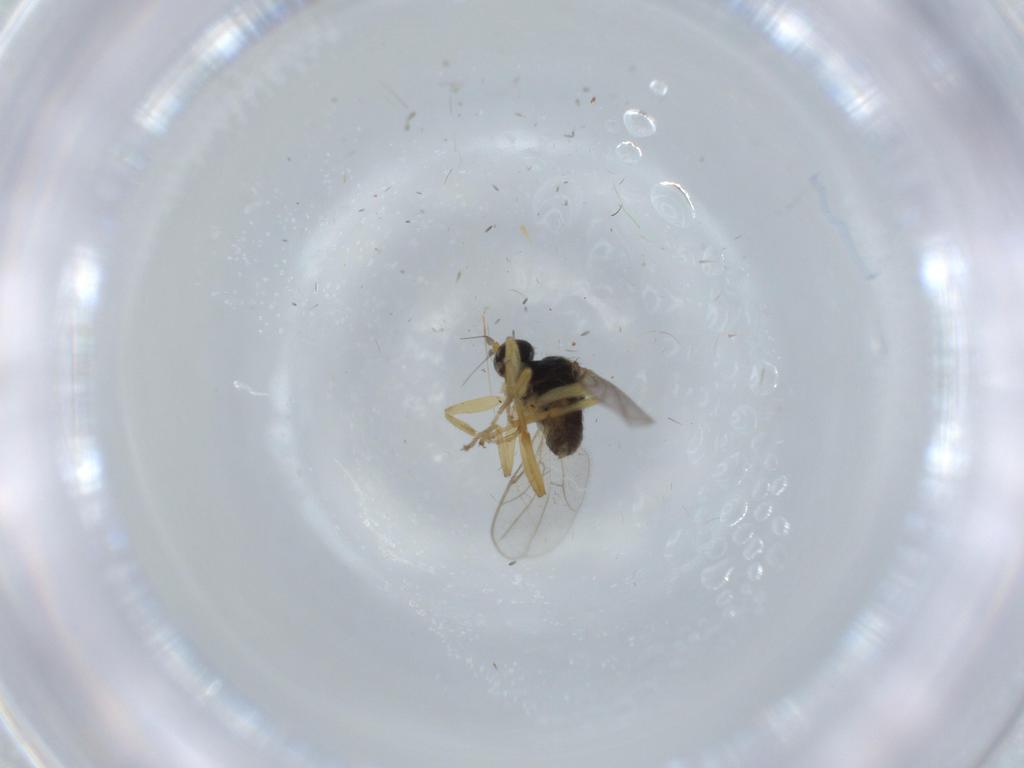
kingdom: Animalia
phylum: Arthropoda
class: Insecta
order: Diptera
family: Hybotidae
